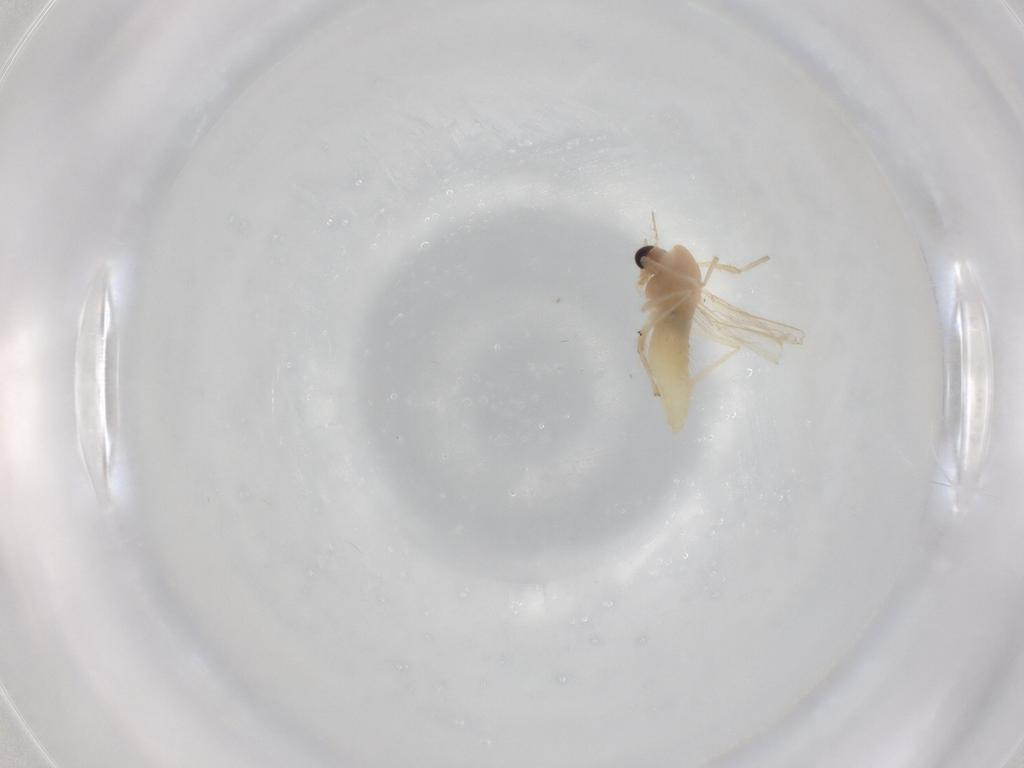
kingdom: Animalia
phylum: Arthropoda
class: Insecta
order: Diptera
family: Chironomidae
